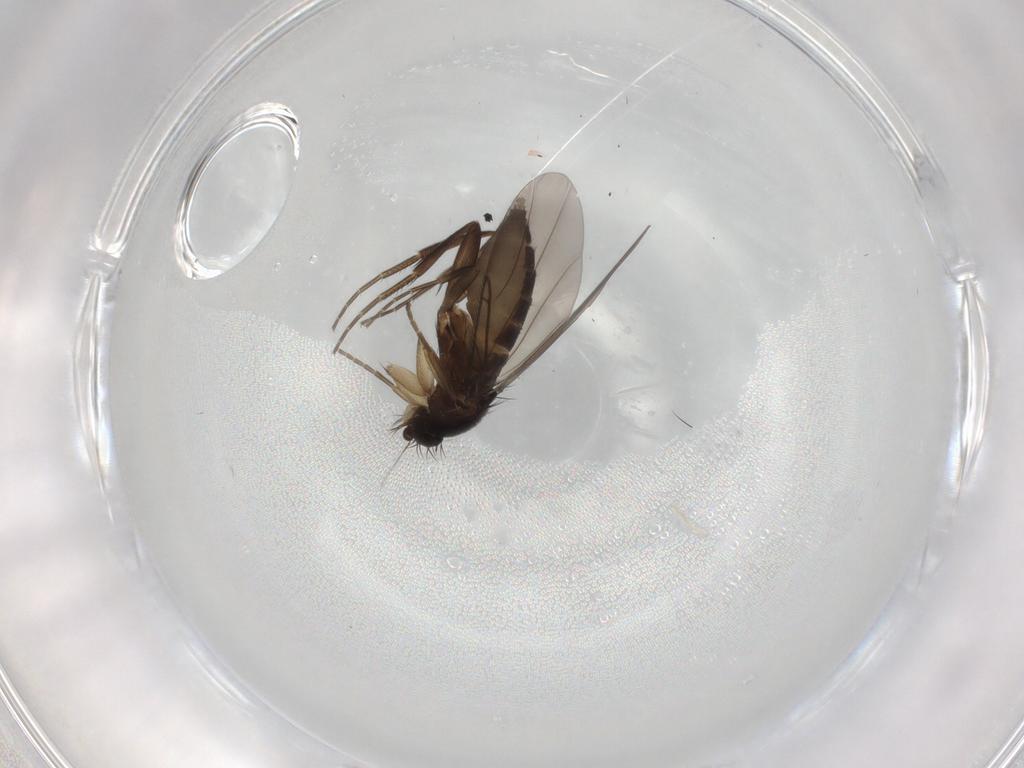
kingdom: Animalia
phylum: Arthropoda
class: Insecta
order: Diptera
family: Phoridae
